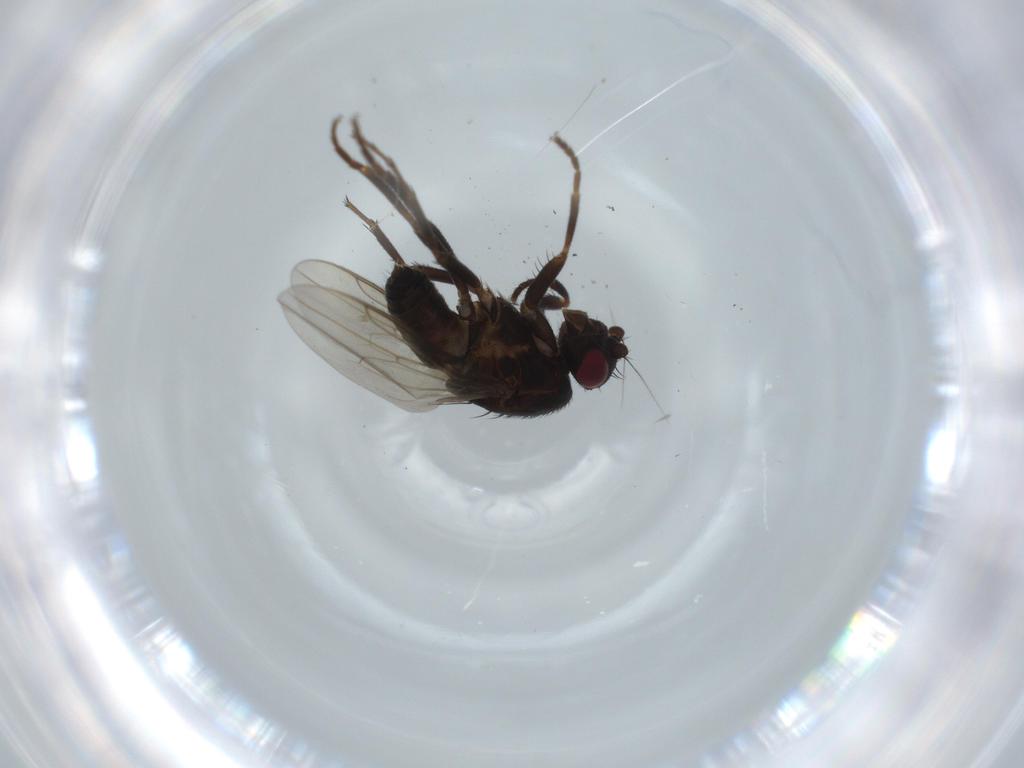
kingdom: Animalia
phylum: Arthropoda
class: Insecta
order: Diptera
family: Sphaeroceridae
